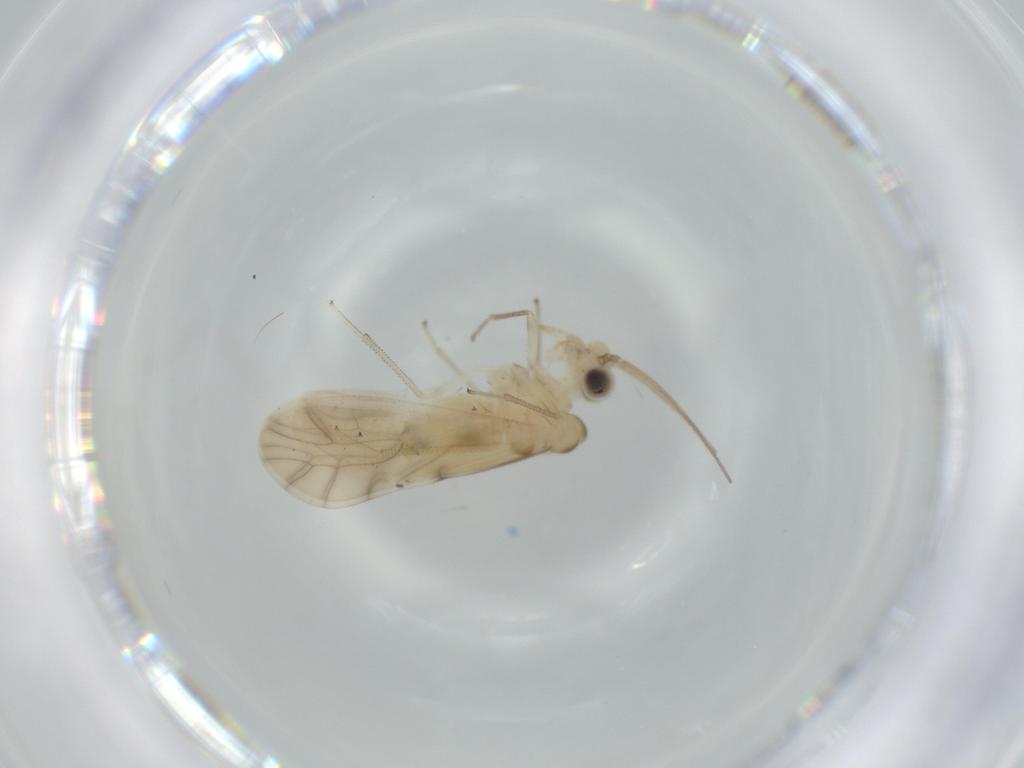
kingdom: Animalia
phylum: Arthropoda
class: Insecta
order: Psocodea
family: Caeciliusidae
